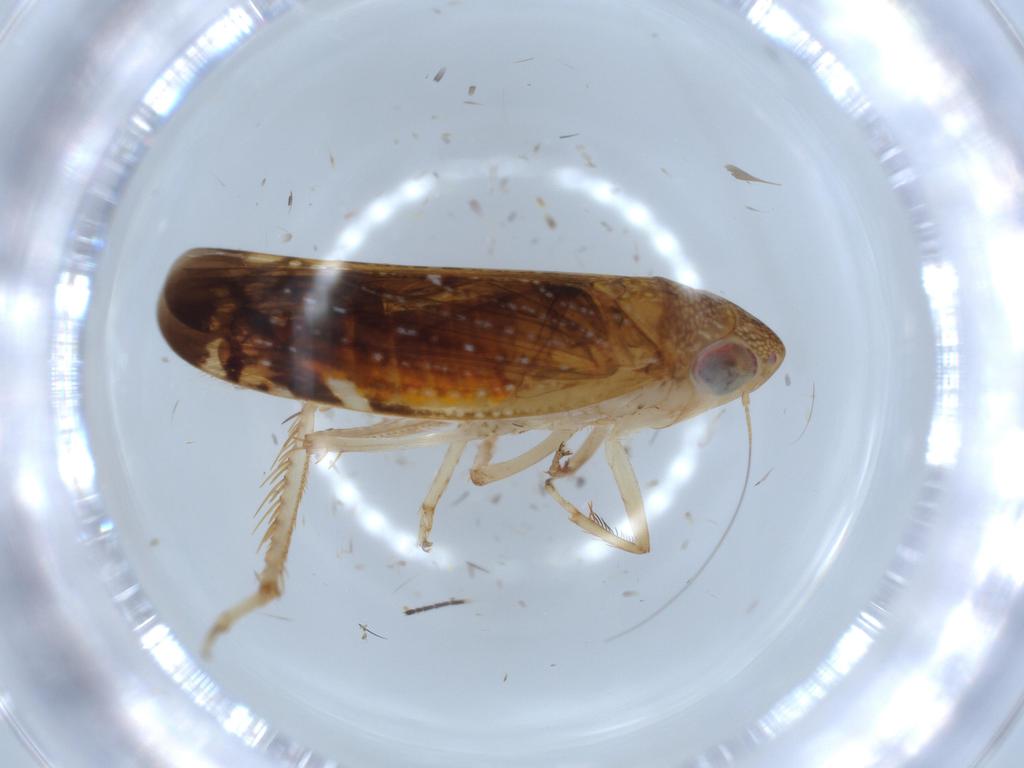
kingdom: Animalia
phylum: Arthropoda
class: Insecta
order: Hemiptera
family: Cicadellidae
